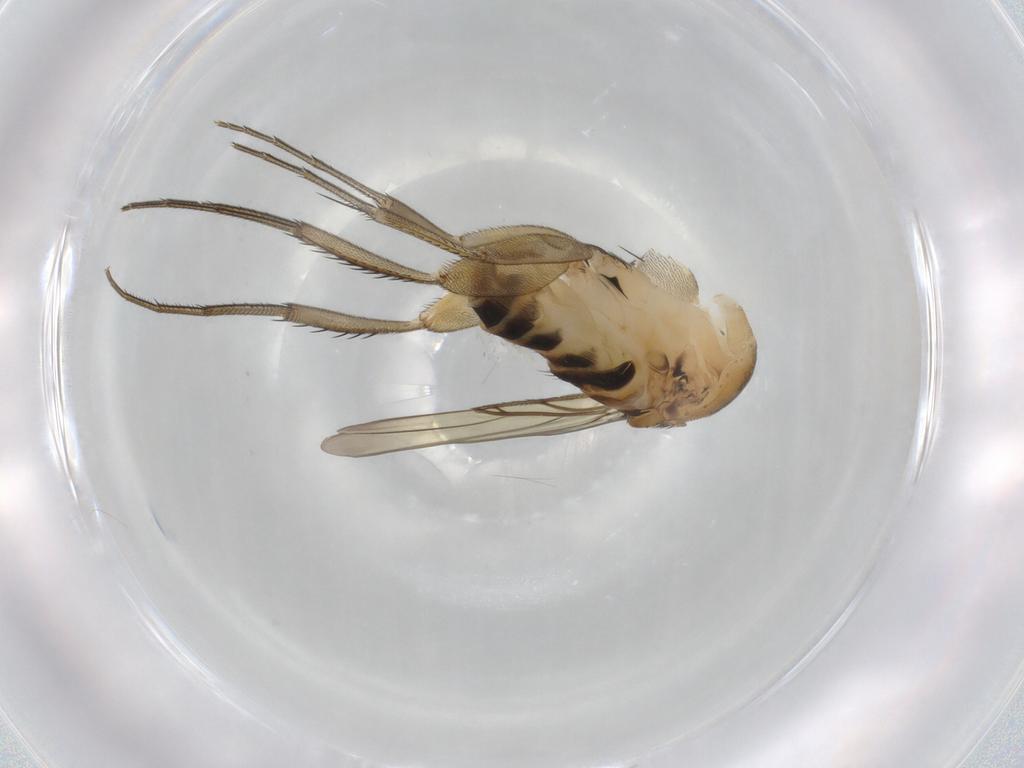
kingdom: Animalia
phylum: Arthropoda
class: Insecta
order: Diptera
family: Phoridae
